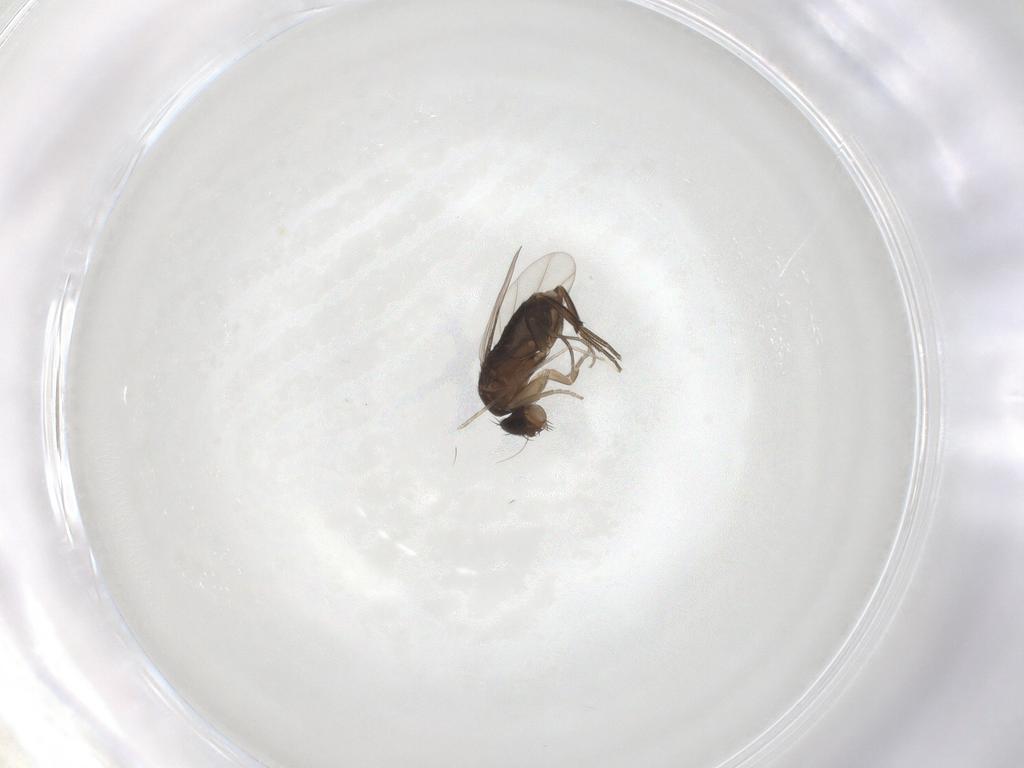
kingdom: Animalia
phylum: Arthropoda
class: Insecta
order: Diptera
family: Phoridae
